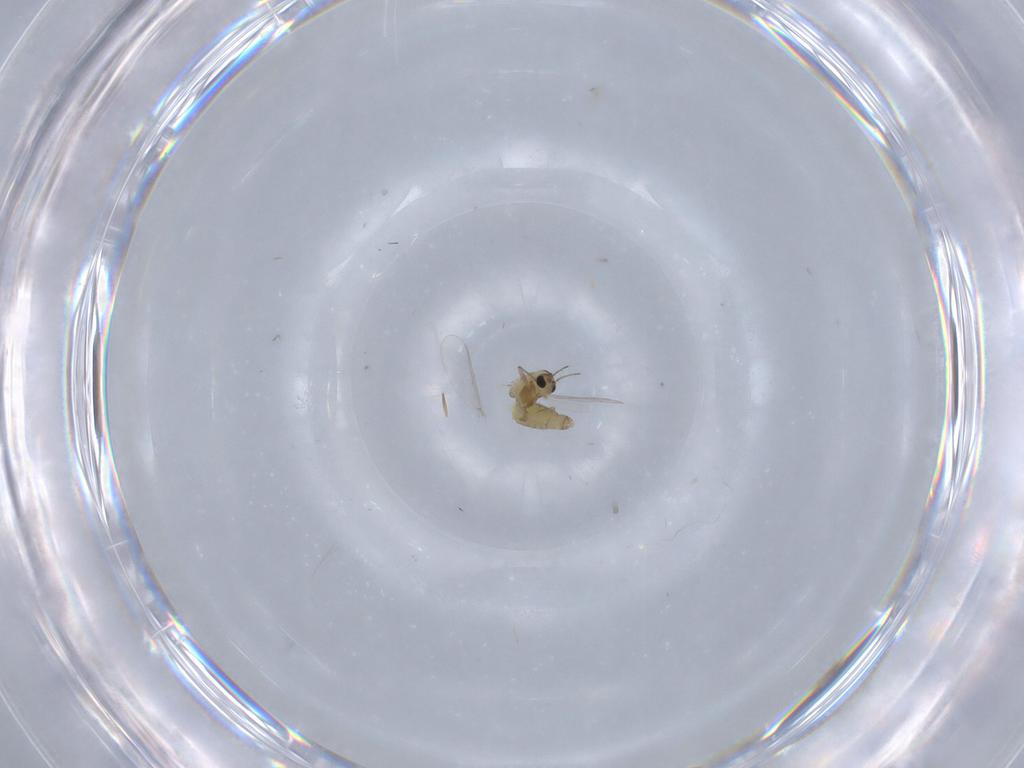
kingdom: Animalia
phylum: Arthropoda
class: Insecta
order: Diptera
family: Chironomidae
